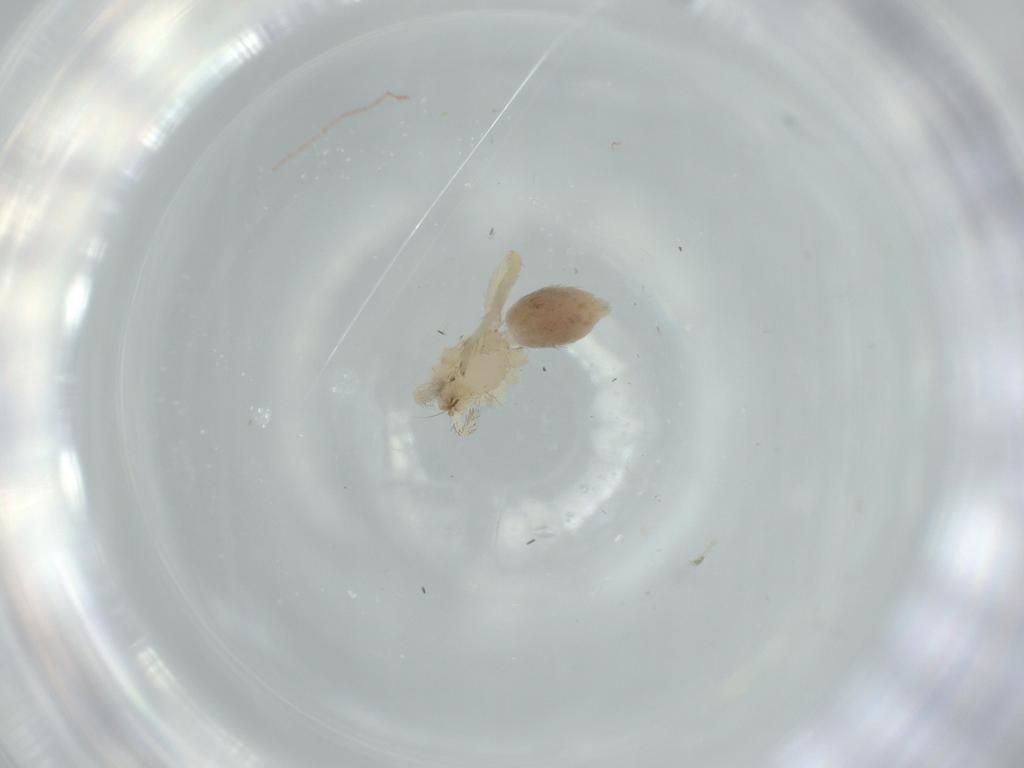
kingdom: Animalia
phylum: Arthropoda
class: Arachnida
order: Araneae
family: Oonopidae
